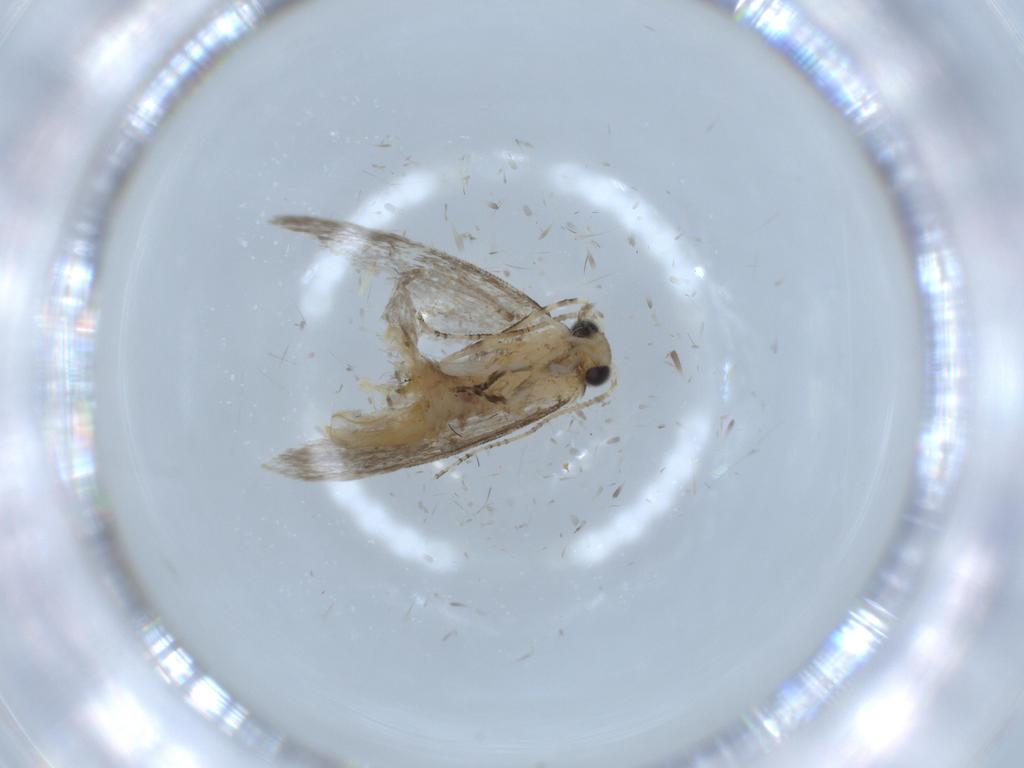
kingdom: Animalia
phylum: Arthropoda
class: Insecta
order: Lepidoptera
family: Tineidae
